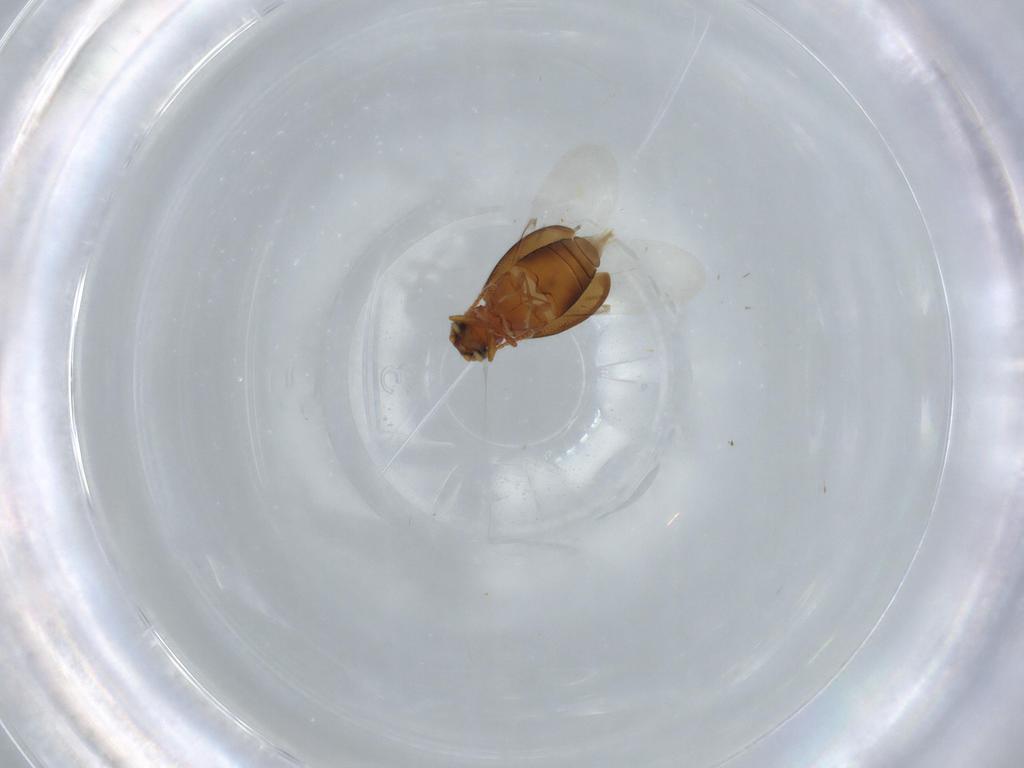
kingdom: Animalia
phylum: Arthropoda
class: Insecta
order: Coleoptera
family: Aderidae
